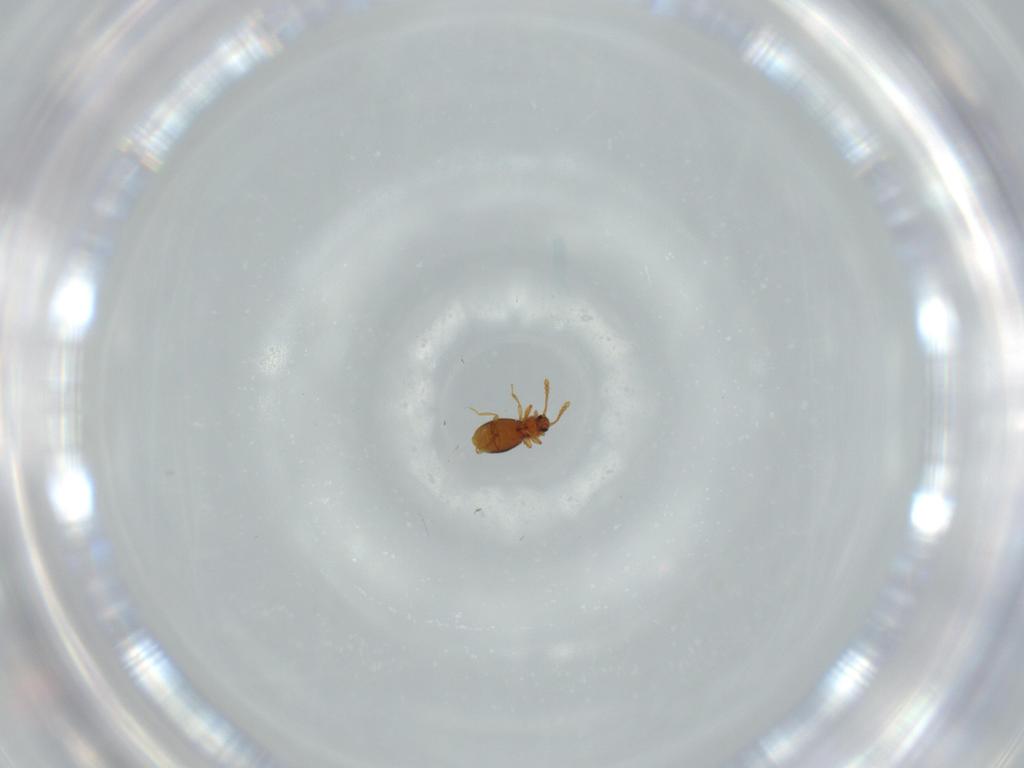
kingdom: Animalia
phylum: Arthropoda
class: Insecta
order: Coleoptera
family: Staphylinidae
